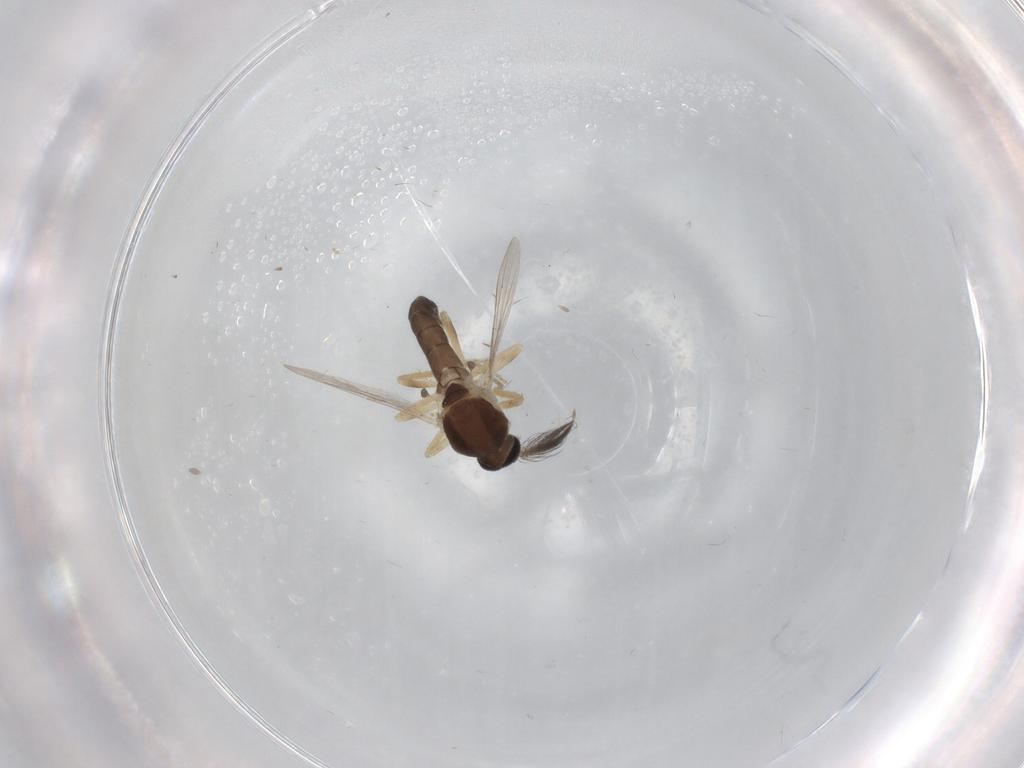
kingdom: Animalia
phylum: Arthropoda
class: Insecta
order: Diptera
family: Ceratopogonidae
